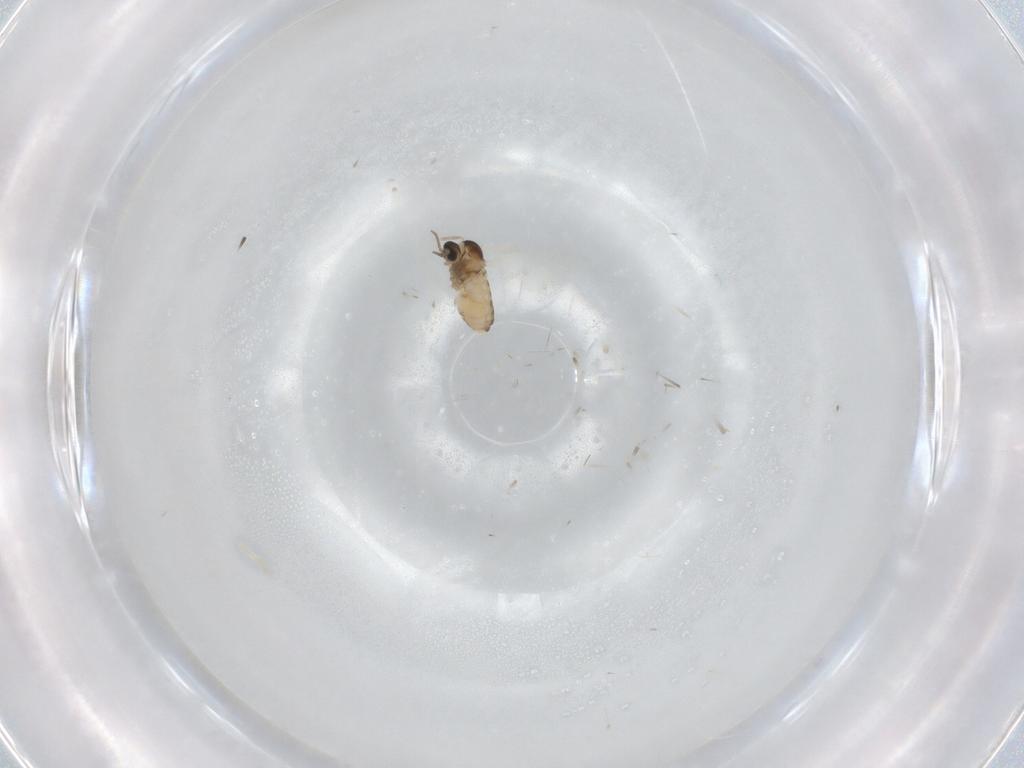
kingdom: Animalia
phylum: Arthropoda
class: Insecta
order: Diptera
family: Cecidomyiidae
